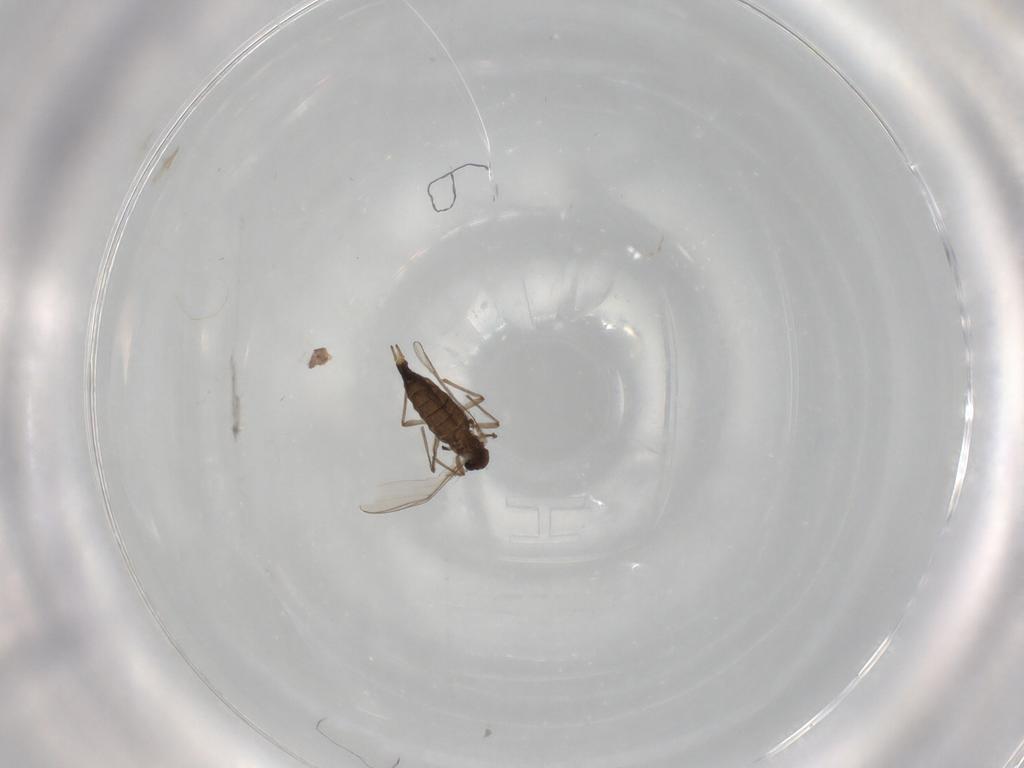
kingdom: Animalia
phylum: Arthropoda
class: Insecta
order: Diptera
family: Chironomidae
